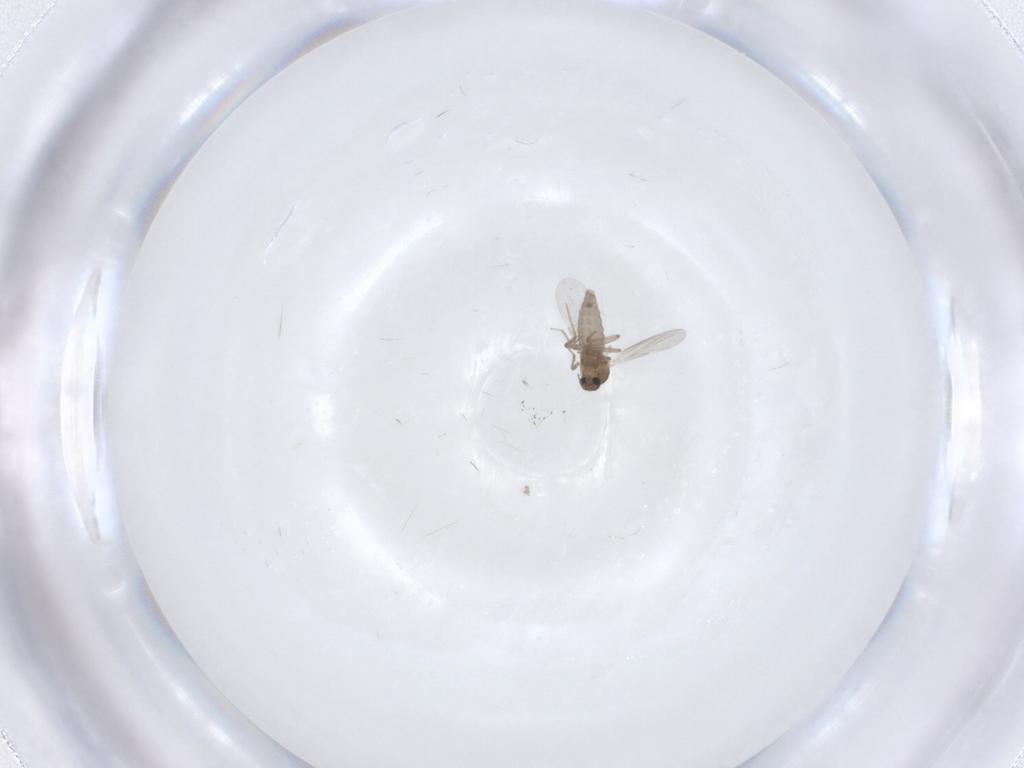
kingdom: Animalia
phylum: Arthropoda
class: Insecta
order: Diptera
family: Ceratopogonidae
